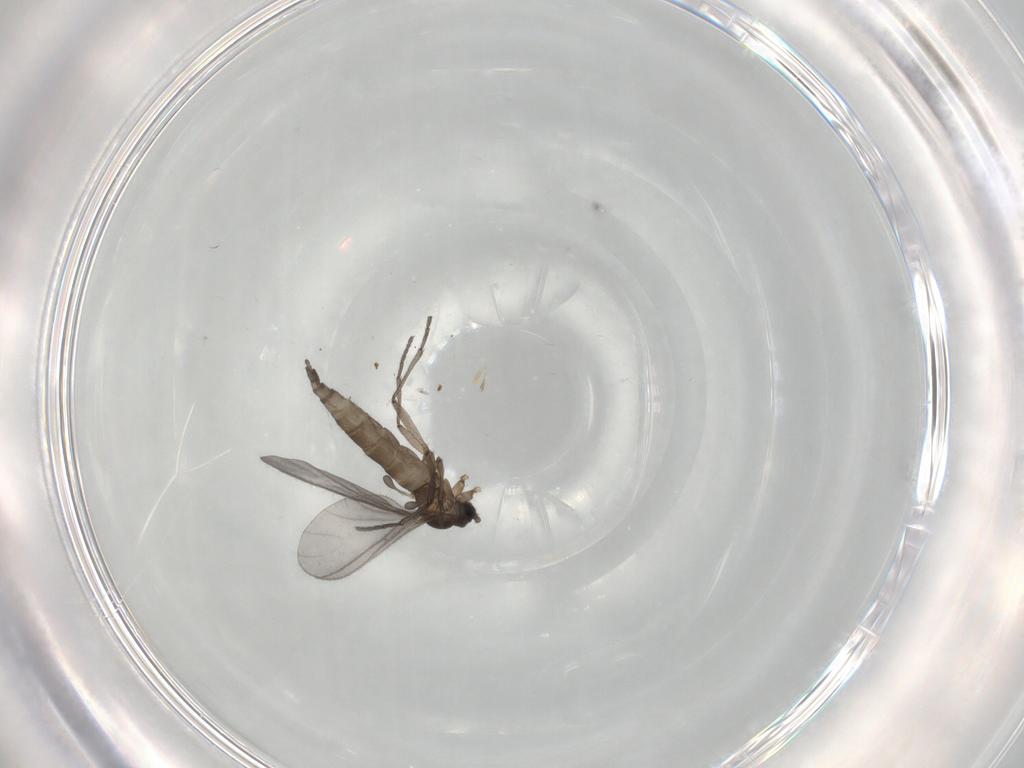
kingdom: Animalia
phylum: Arthropoda
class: Insecta
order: Diptera
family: Sciaridae
